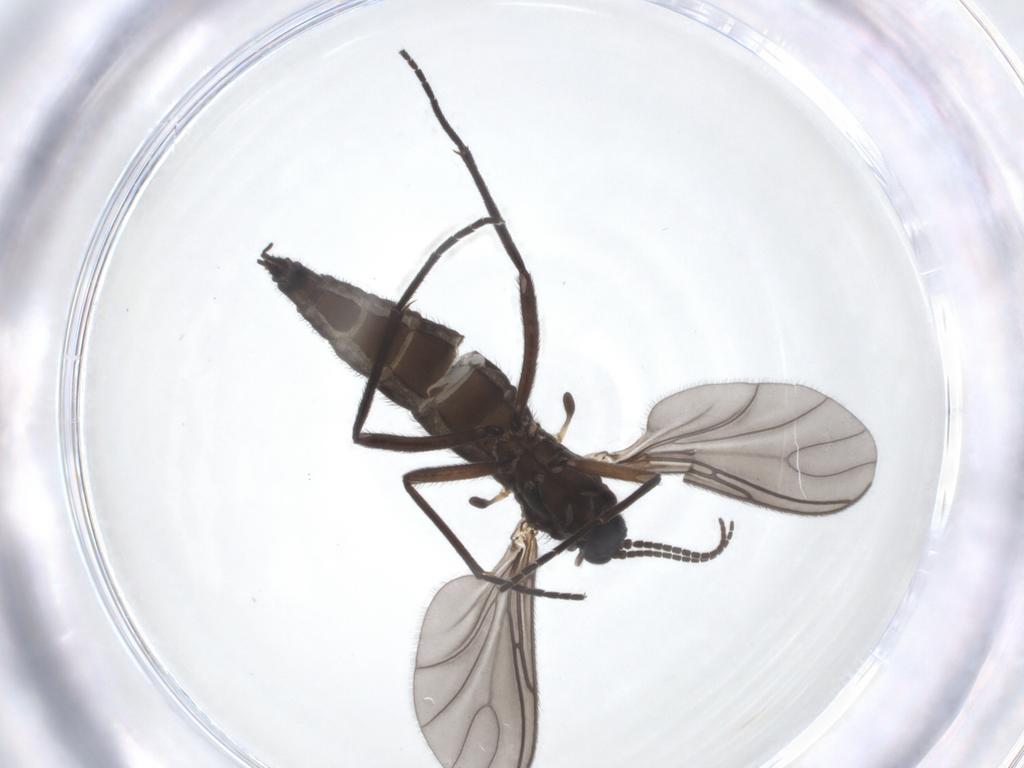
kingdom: Animalia
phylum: Arthropoda
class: Insecta
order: Diptera
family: Sciaridae
